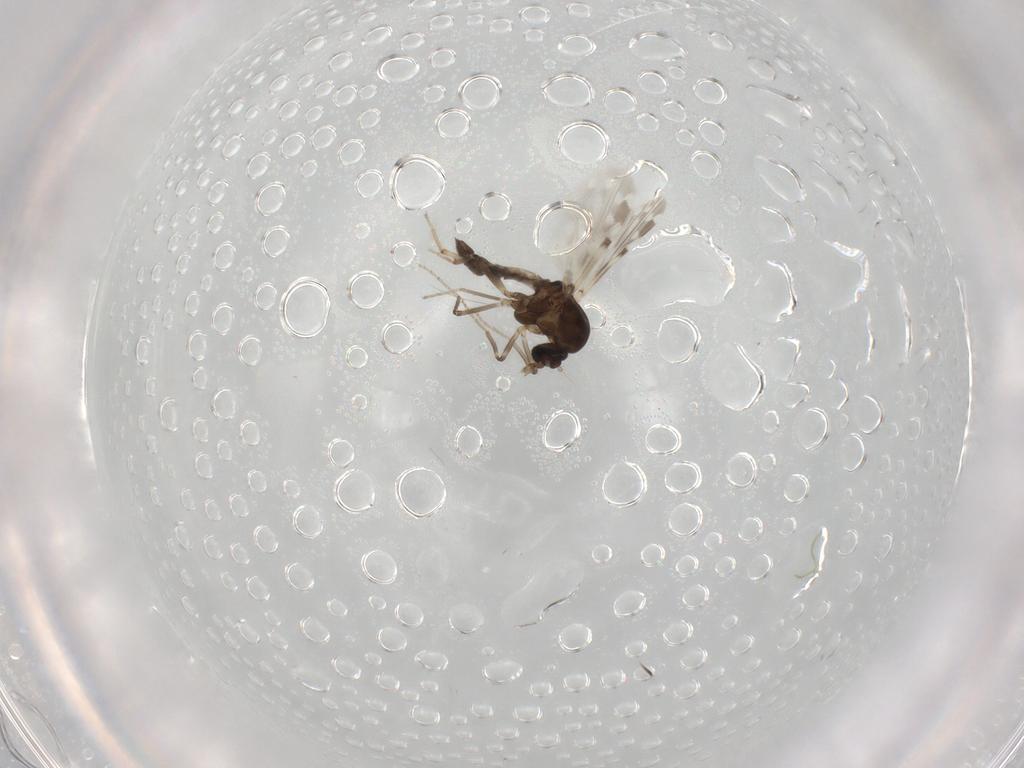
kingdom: Animalia
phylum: Arthropoda
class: Insecta
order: Diptera
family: Ceratopogonidae
